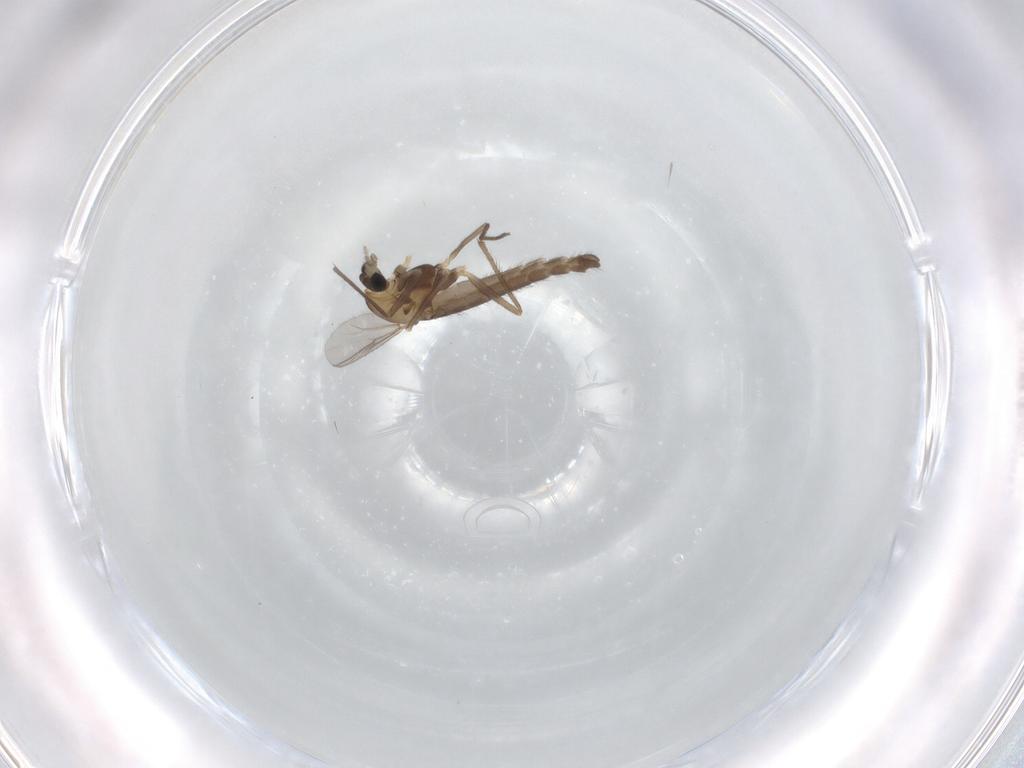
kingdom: Animalia
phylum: Arthropoda
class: Insecta
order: Diptera
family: Chironomidae
